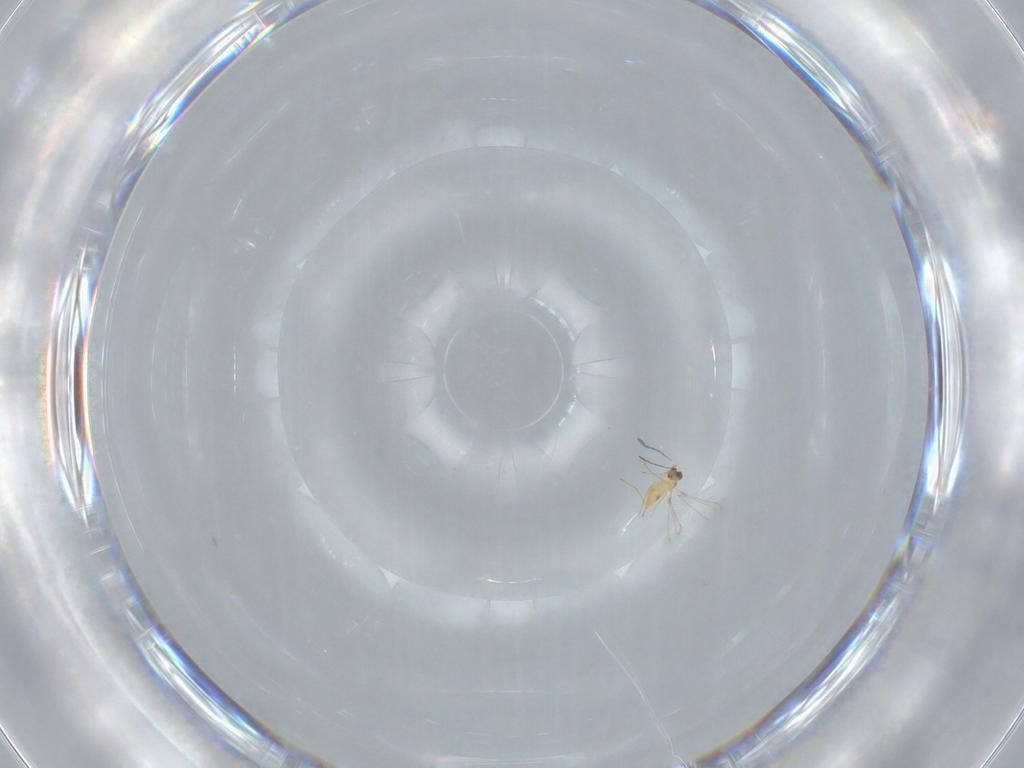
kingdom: Animalia
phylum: Arthropoda
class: Insecta
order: Hymenoptera
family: Mymaridae
